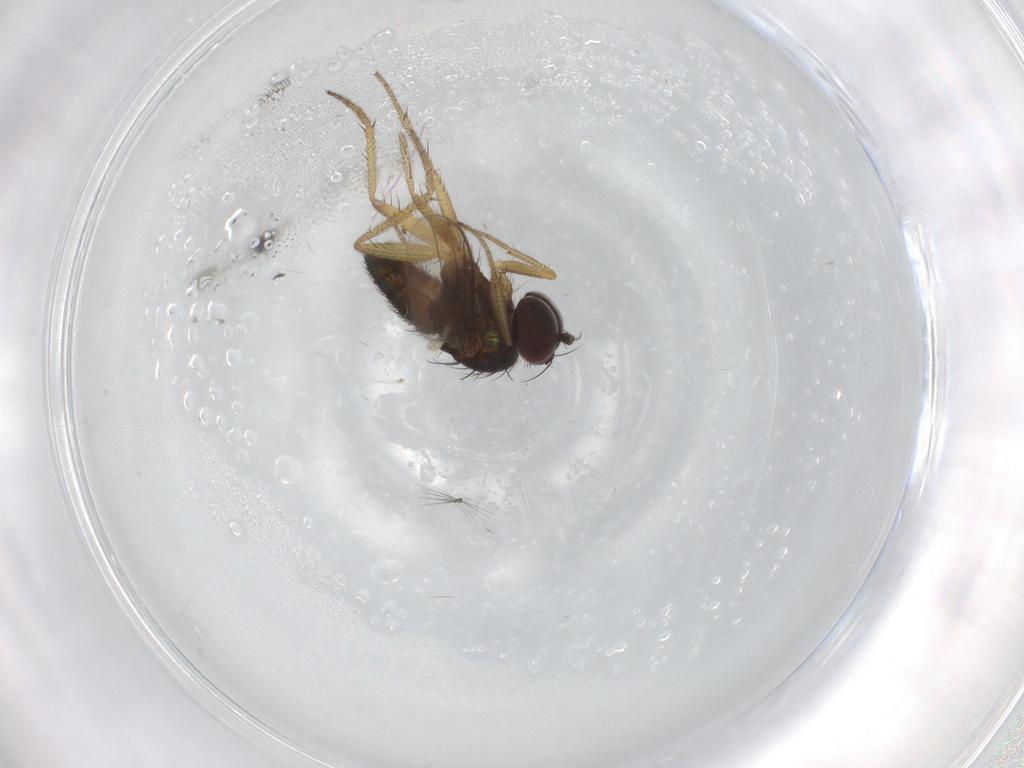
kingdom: Animalia
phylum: Arthropoda
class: Insecta
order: Diptera
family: Dolichopodidae
